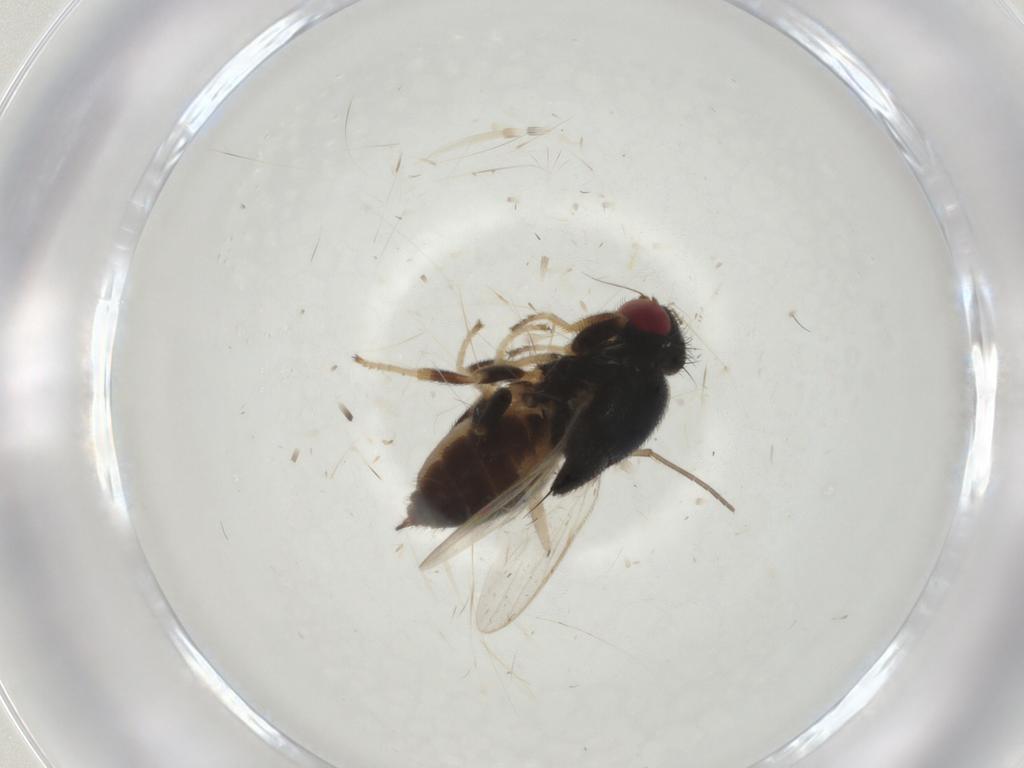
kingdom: Animalia
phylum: Arthropoda
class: Insecta
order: Diptera
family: Chloropidae
